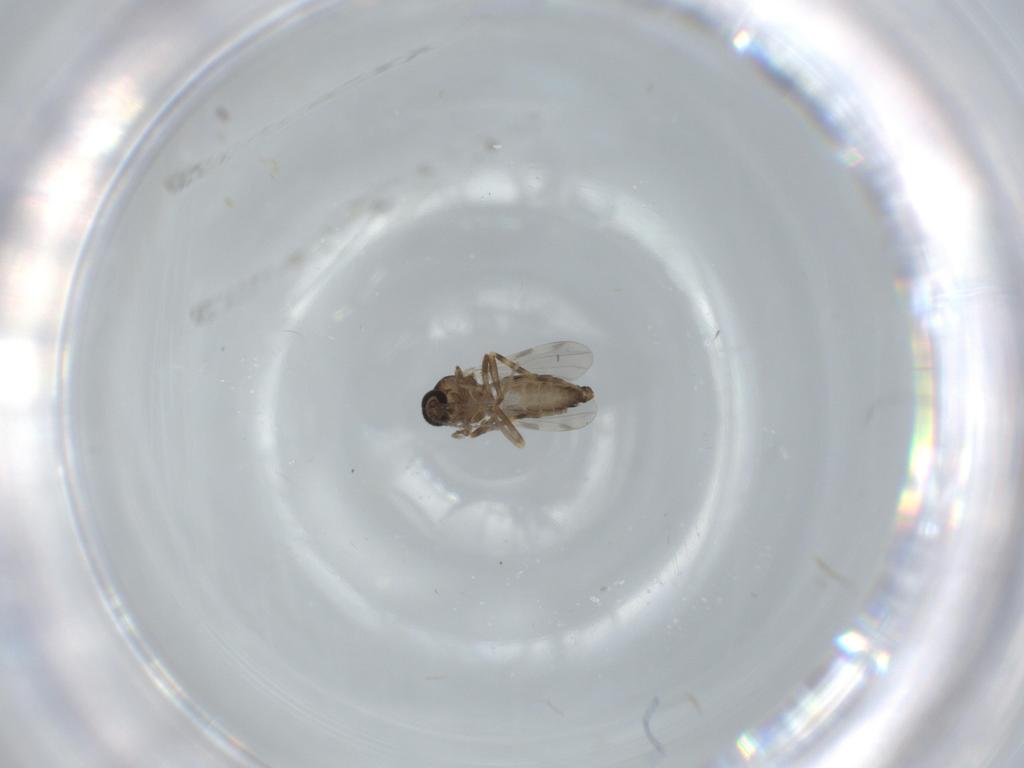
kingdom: Animalia
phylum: Arthropoda
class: Insecta
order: Diptera
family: Ceratopogonidae
